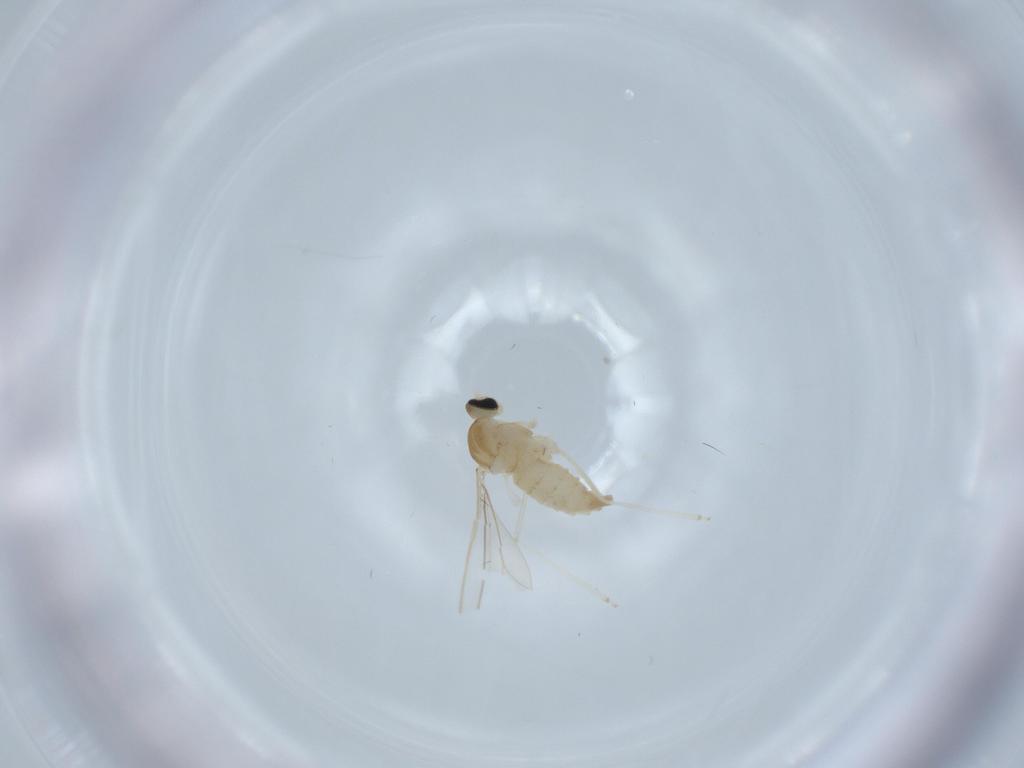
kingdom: Animalia
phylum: Arthropoda
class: Insecta
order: Diptera
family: Cecidomyiidae
